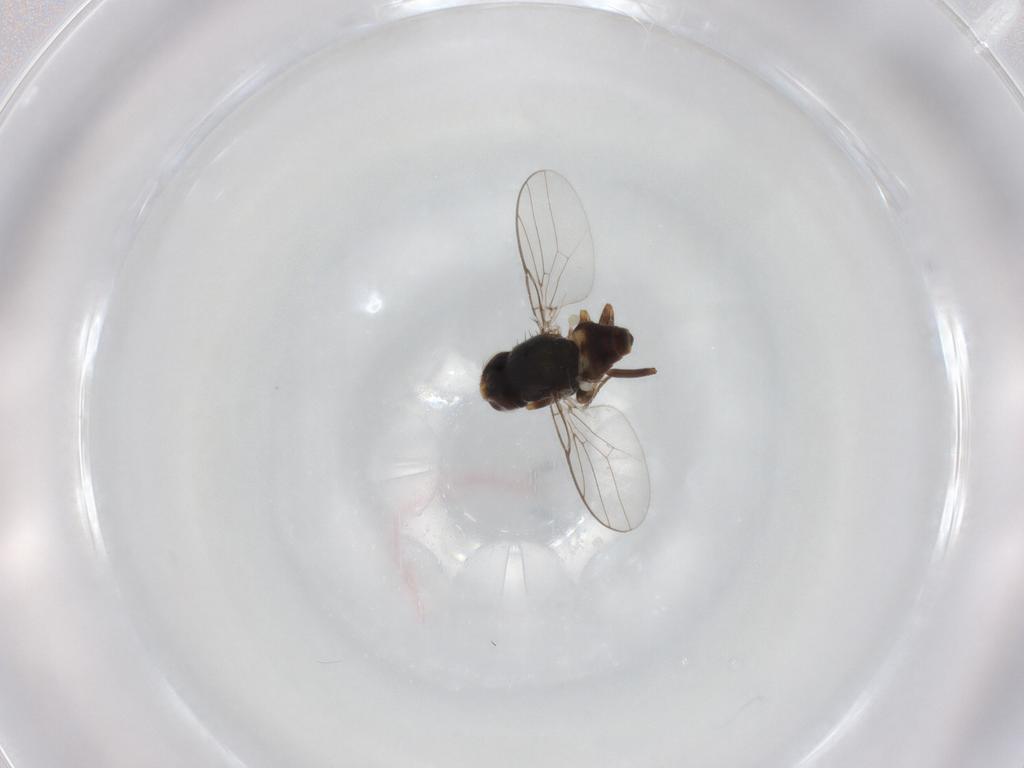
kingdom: Animalia
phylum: Arthropoda
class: Insecta
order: Diptera
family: Chloropidae
